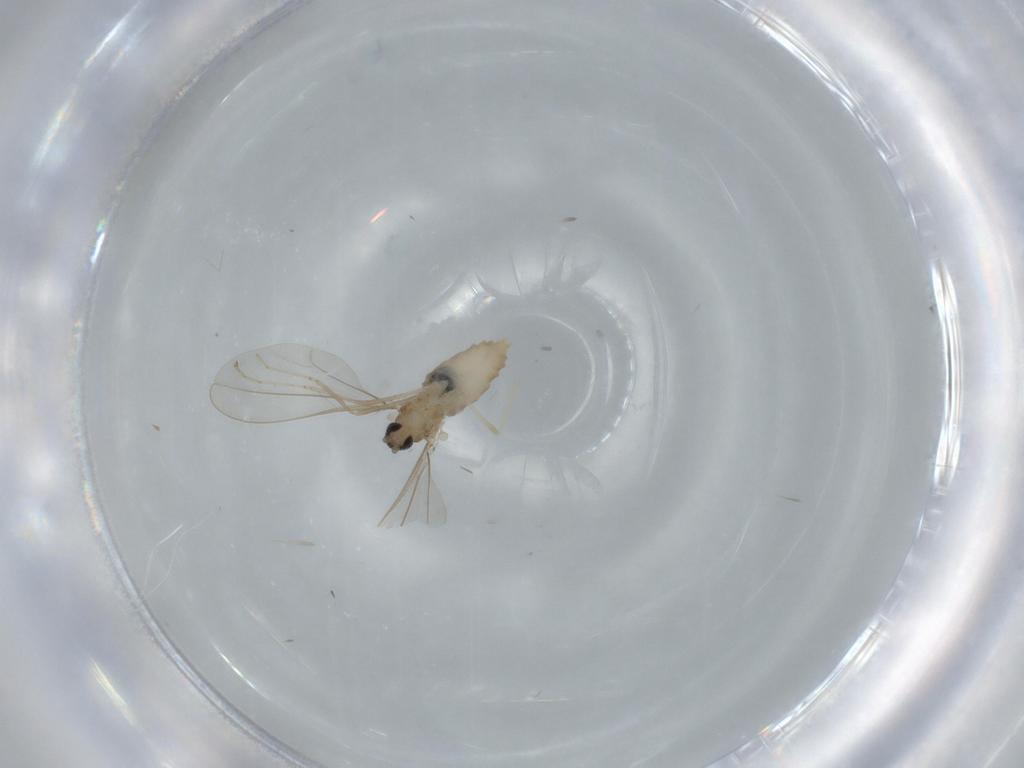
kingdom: Animalia
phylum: Arthropoda
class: Insecta
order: Diptera
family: Cecidomyiidae
